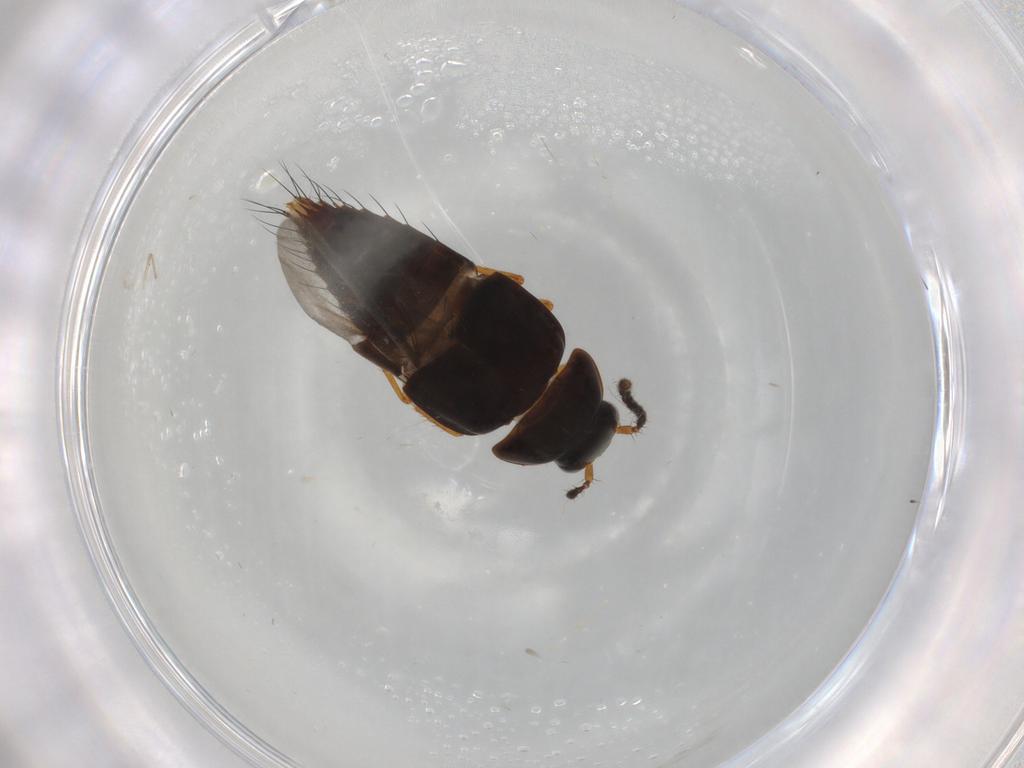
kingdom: Animalia
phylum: Arthropoda
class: Insecta
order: Coleoptera
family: Staphylinidae
